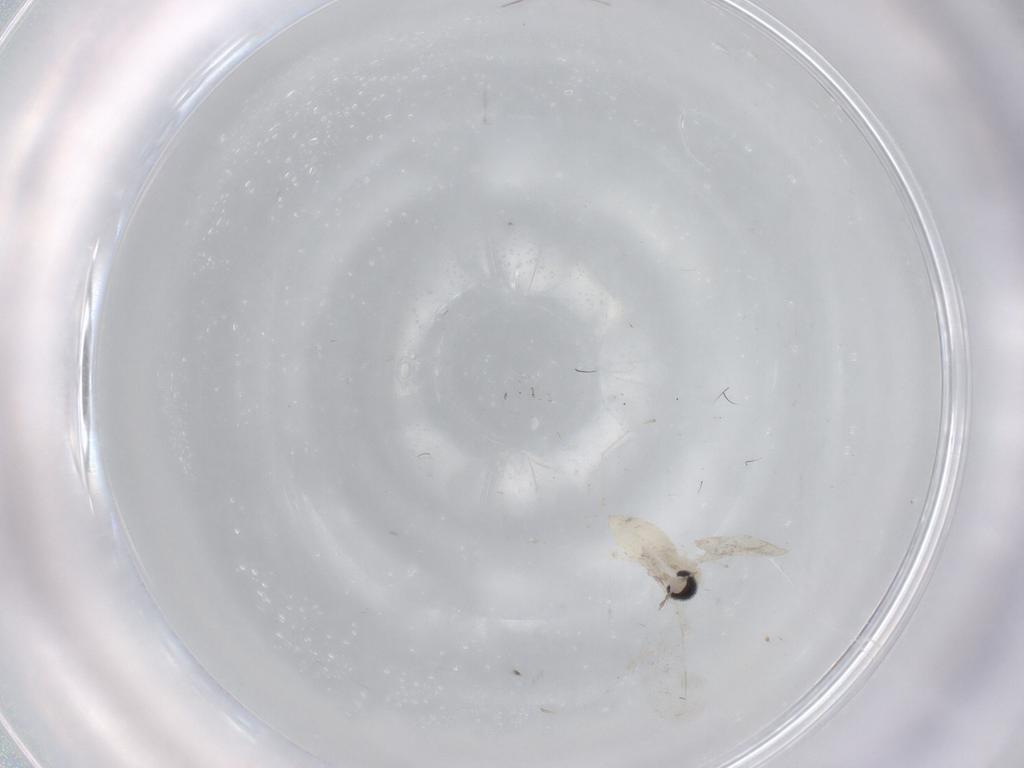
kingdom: Animalia
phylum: Arthropoda
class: Insecta
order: Diptera
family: Cecidomyiidae
